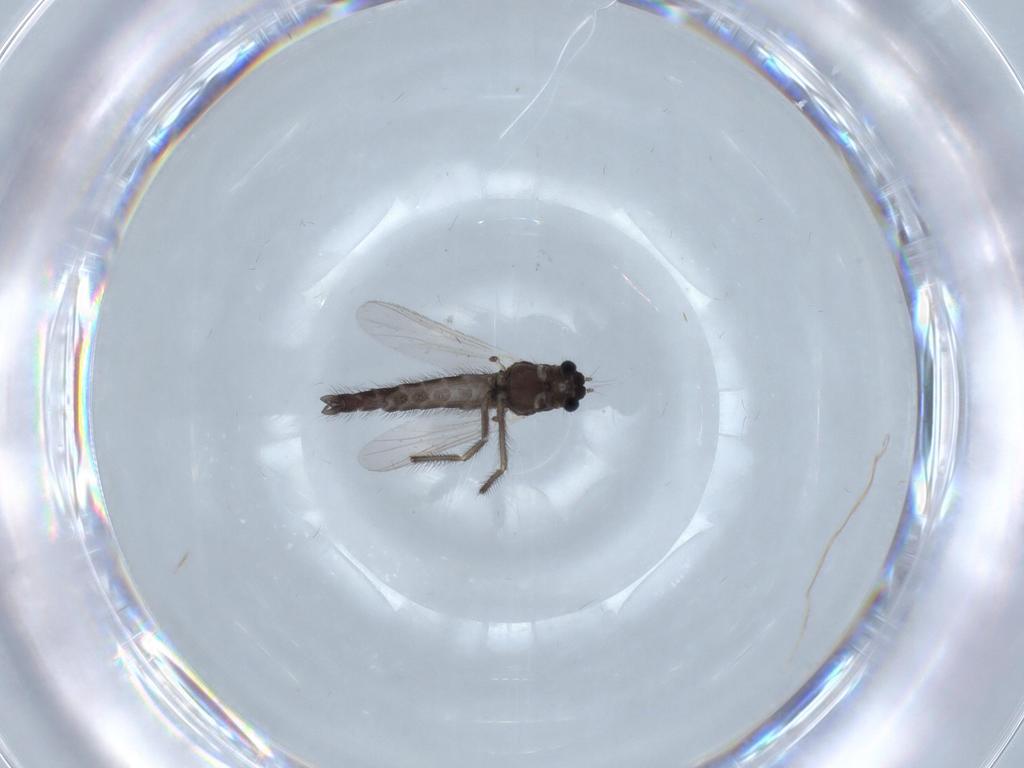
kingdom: Animalia
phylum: Arthropoda
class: Insecta
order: Diptera
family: Chironomidae
